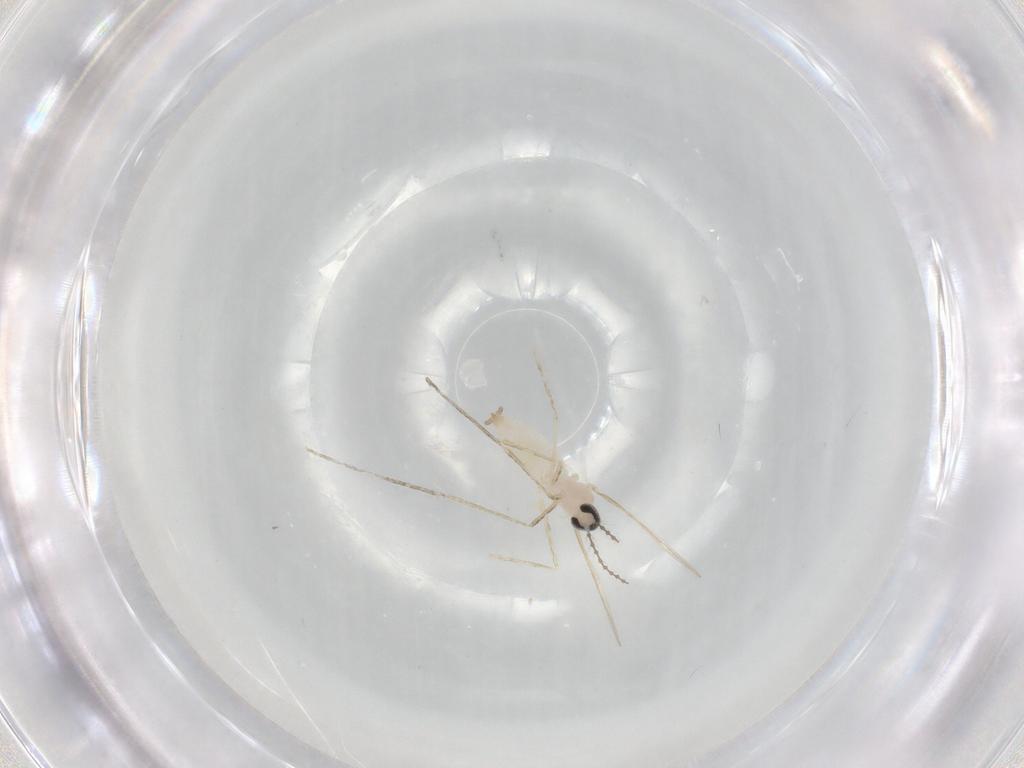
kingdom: Animalia
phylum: Arthropoda
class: Insecta
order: Diptera
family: Cecidomyiidae
